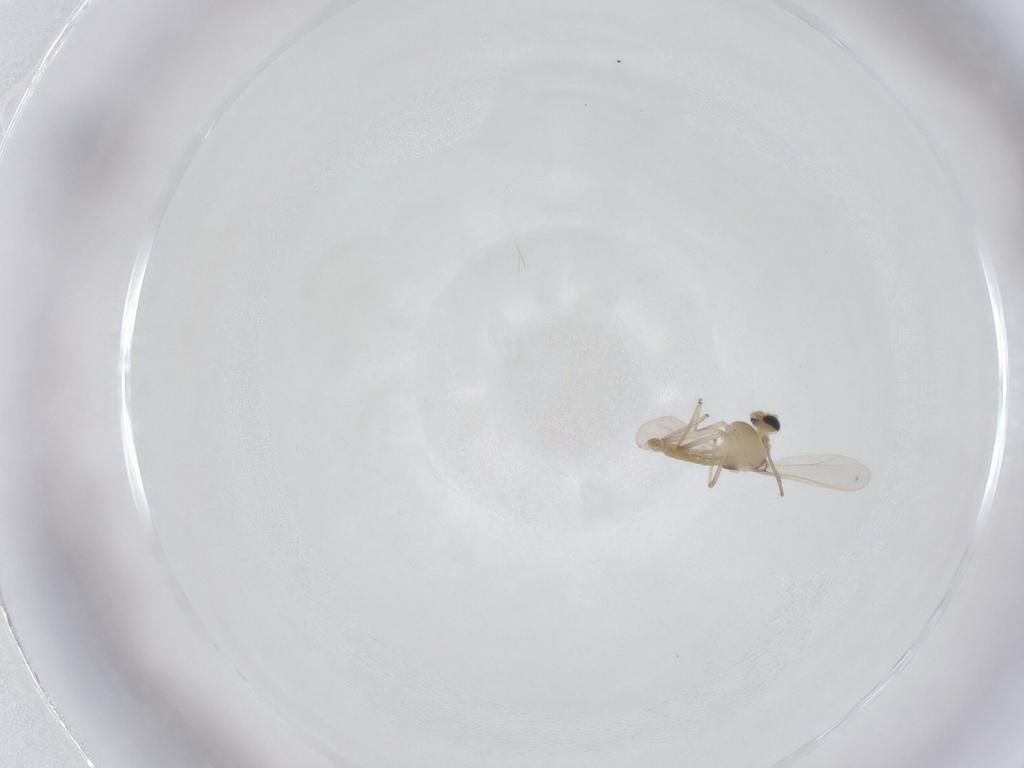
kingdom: Animalia
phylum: Arthropoda
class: Insecta
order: Diptera
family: Chironomidae
